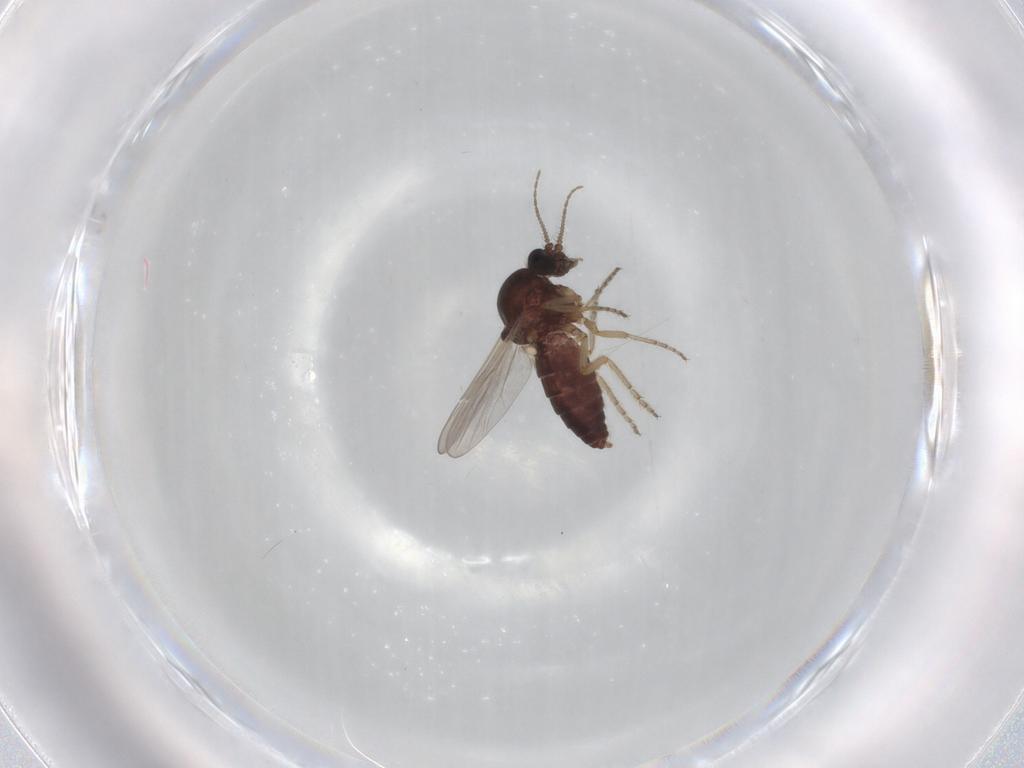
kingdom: Animalia
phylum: Arthropoda
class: Insecta
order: Diptera
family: Ceratopogonidae
